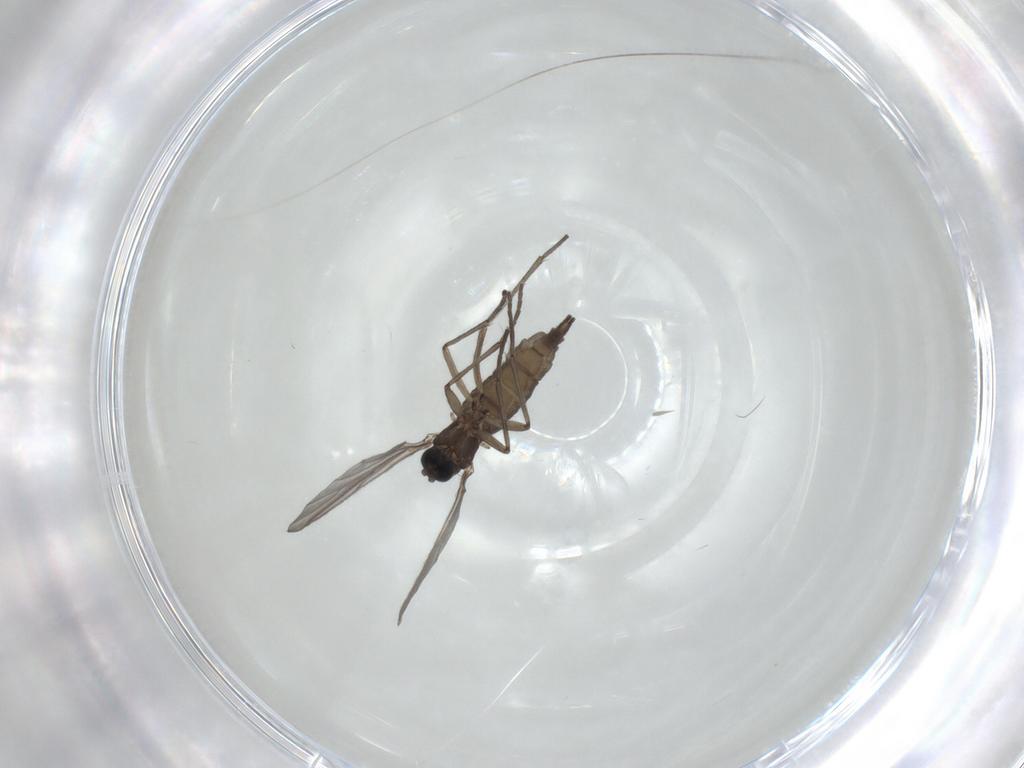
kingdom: Animalia
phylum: Arthropoda
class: Insecta
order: Diptera
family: Sciaridae
